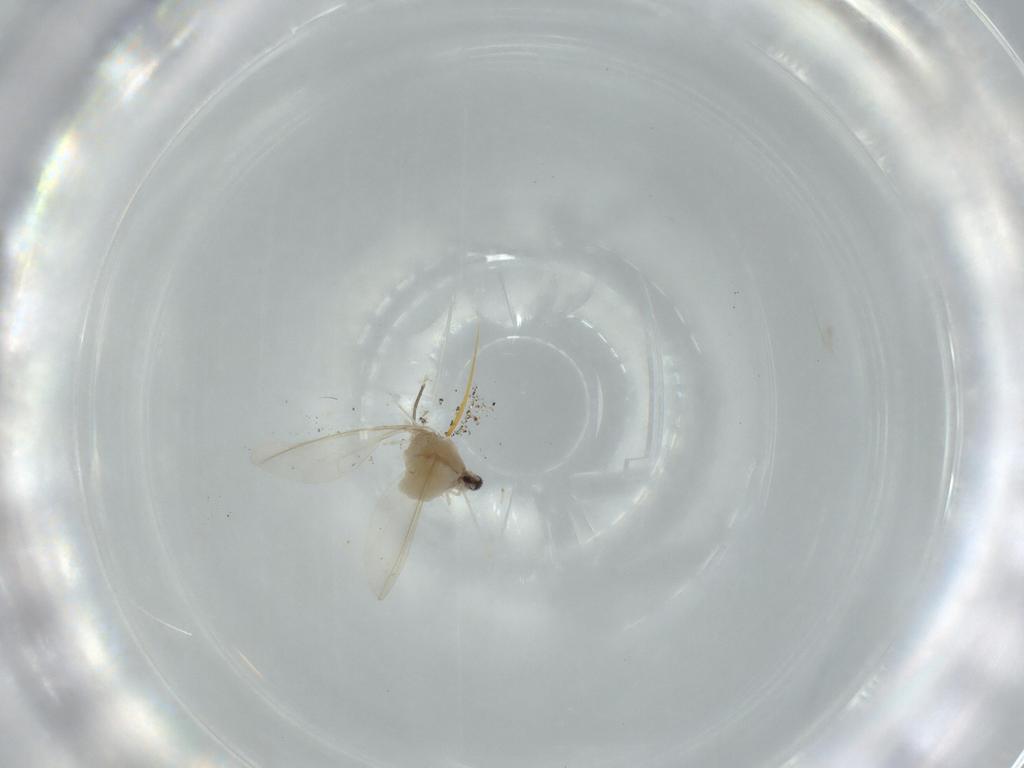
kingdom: Animalia
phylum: Arthropoda
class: Insecta
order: Diptera
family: Cecidomyiidae
